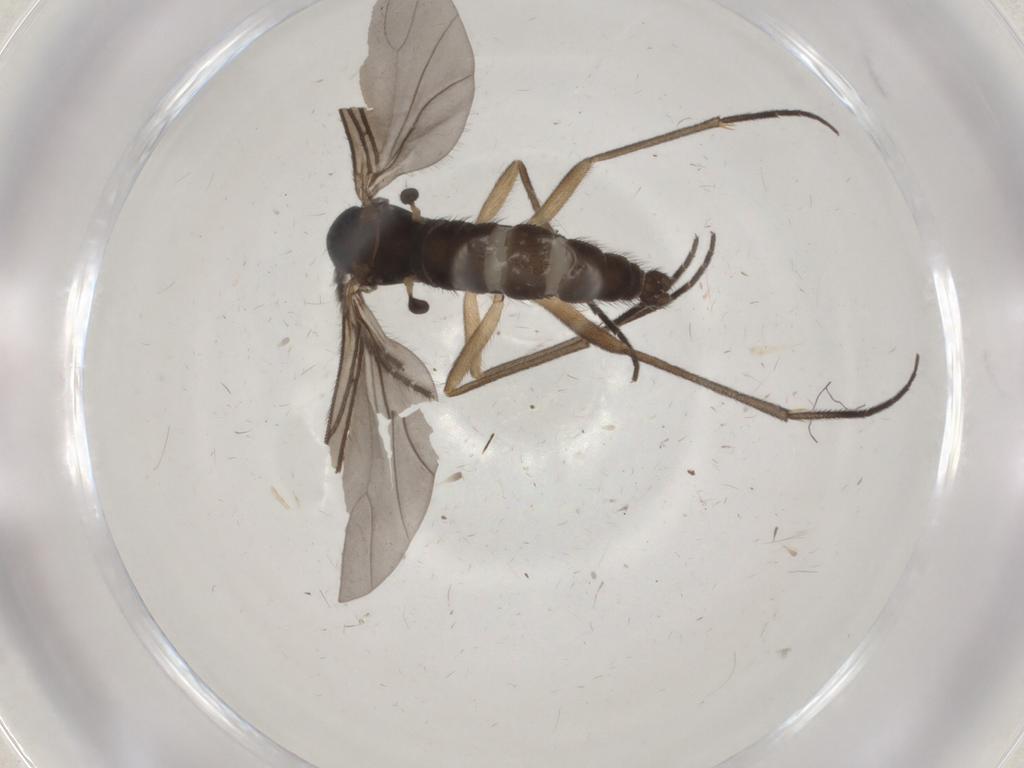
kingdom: Animalia
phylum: Arthropoda
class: Insecta
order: Diptera
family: Sciaridae
